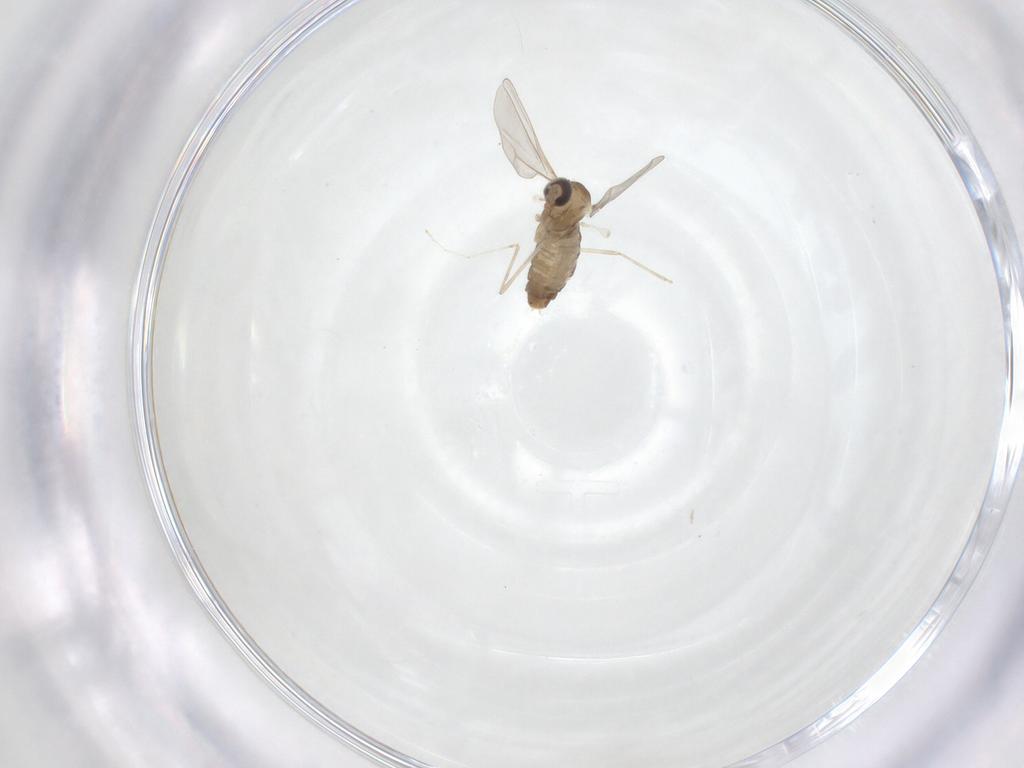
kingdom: Animalia
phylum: Arthropoda
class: Insecta
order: Diptera
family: Cecidomyiidae
